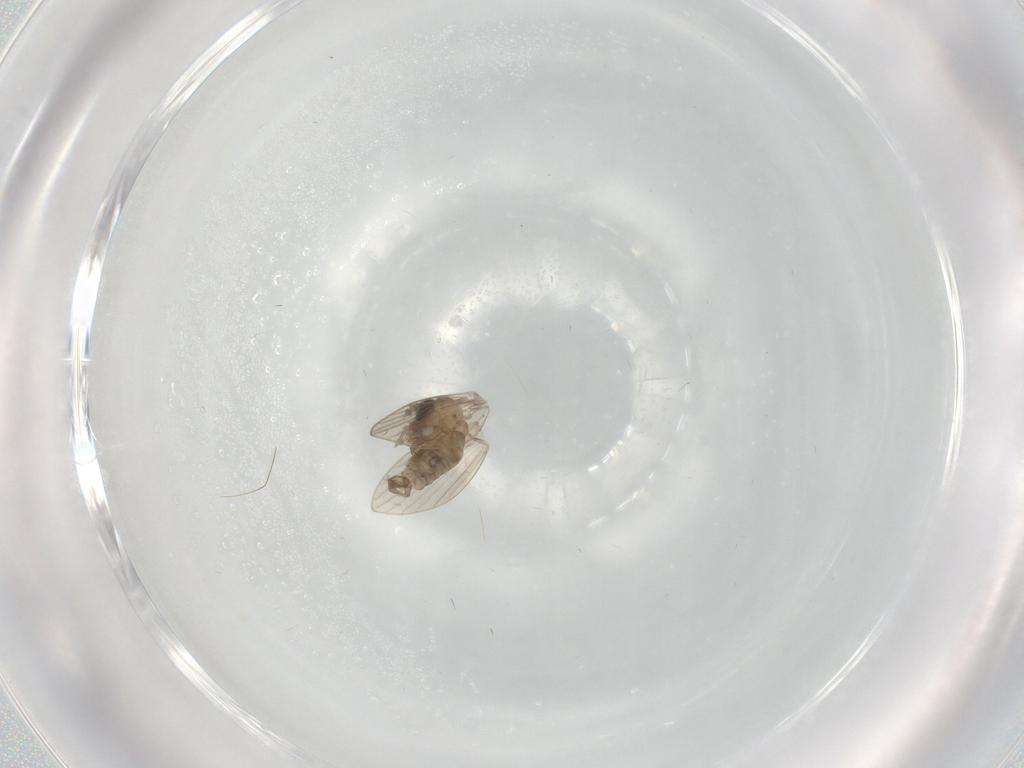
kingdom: Animalia
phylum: Arthropoda
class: Insecta
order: Diptera
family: Psychodidae
